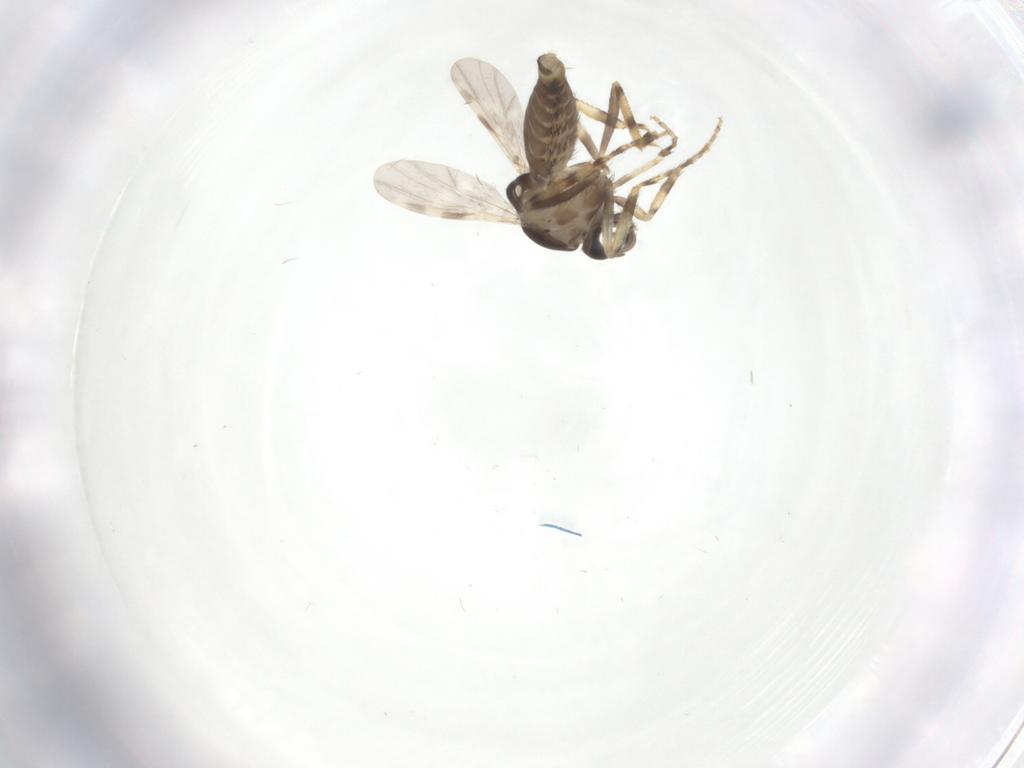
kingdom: Animalia
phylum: Arthropoda
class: Insecta
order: Diptera
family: Ceratopogonidae
